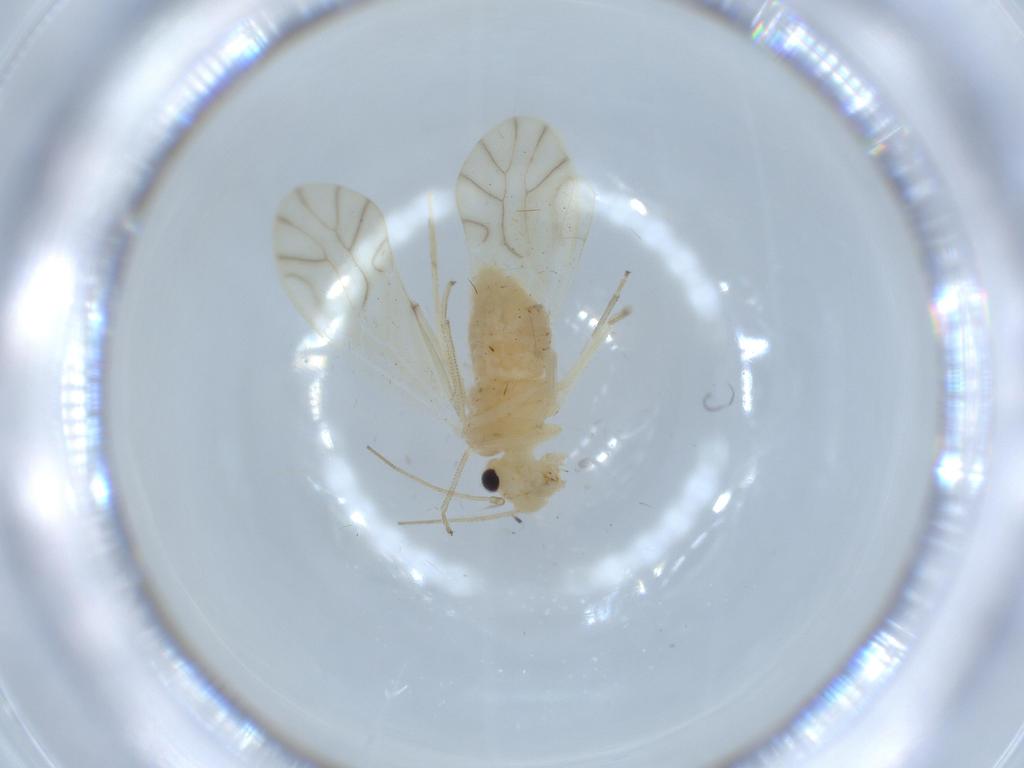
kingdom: Animalia
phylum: Arthropoda
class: Insecta
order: Psocodea
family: Caeciliusidae
